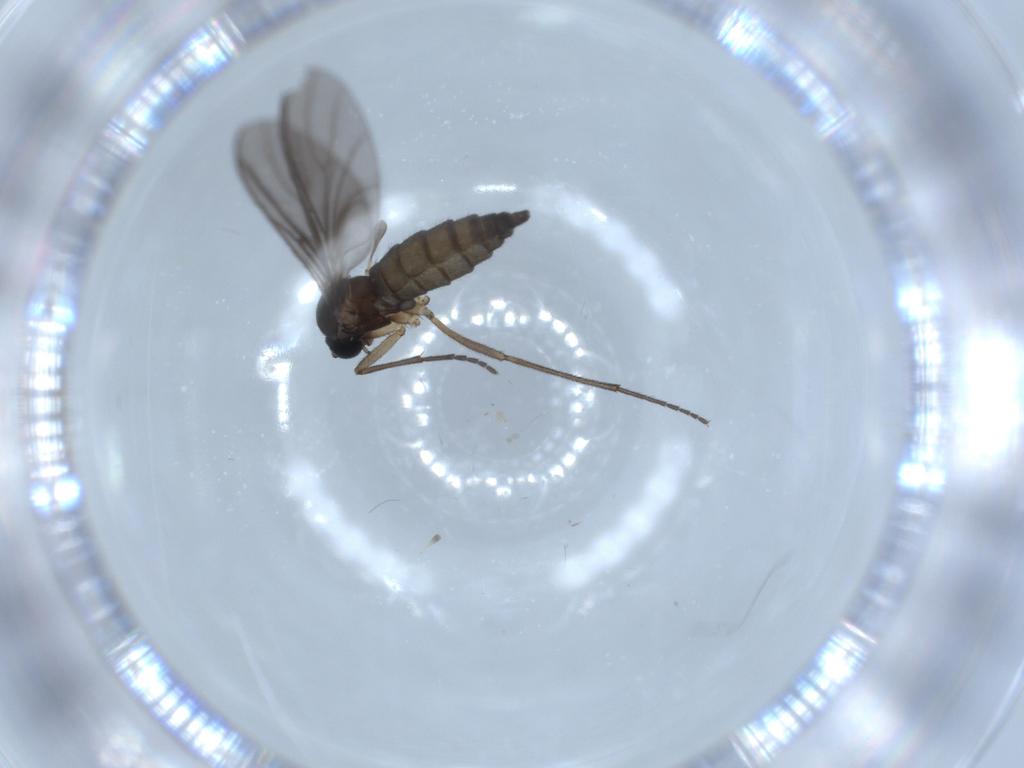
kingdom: Animalia
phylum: Arthropoda
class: Insecta
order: Diptera
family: Sciaridae
